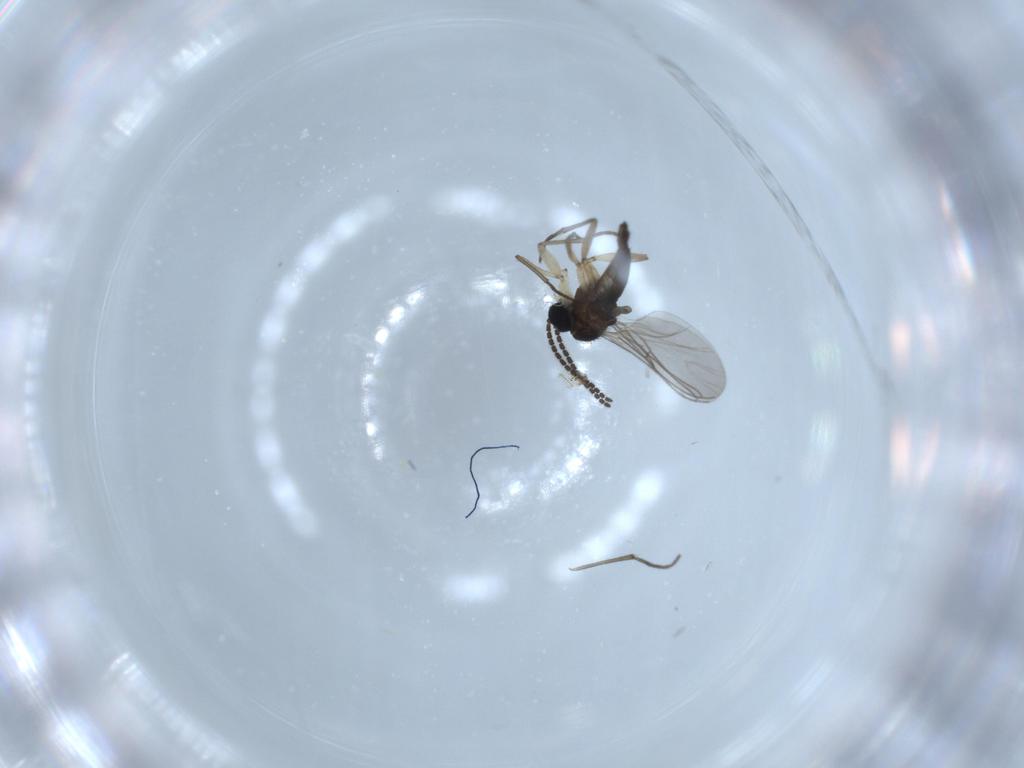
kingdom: Animalia
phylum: Arthropoda
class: Insecta
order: Diptera
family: Sciaridae
